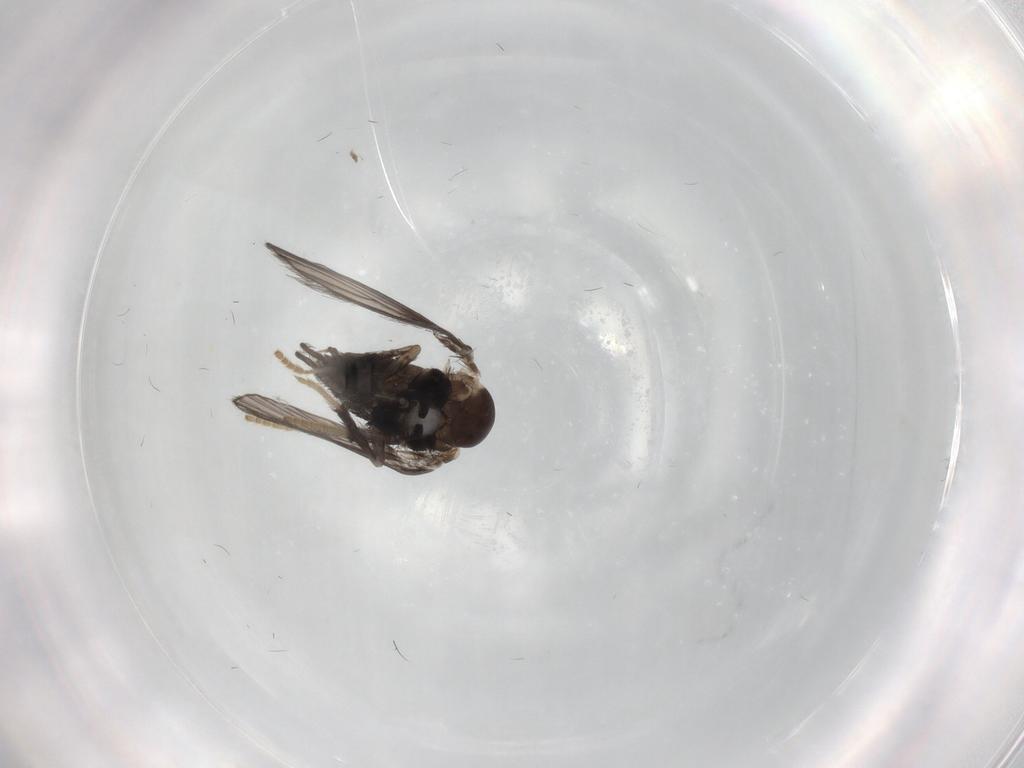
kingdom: Animalia
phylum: Arthropoda
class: Insecta
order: Diptera
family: Psychodidae
